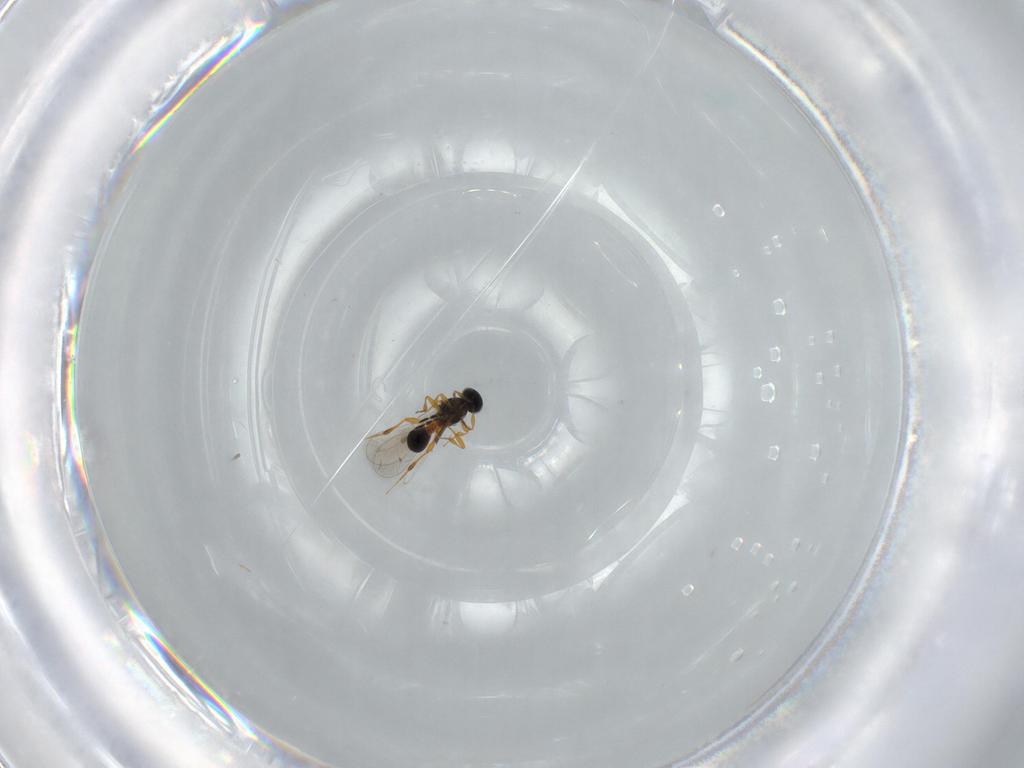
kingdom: Animalia
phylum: Arthropoda
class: Insecta
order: Hymenoptera
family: Platygastridae
